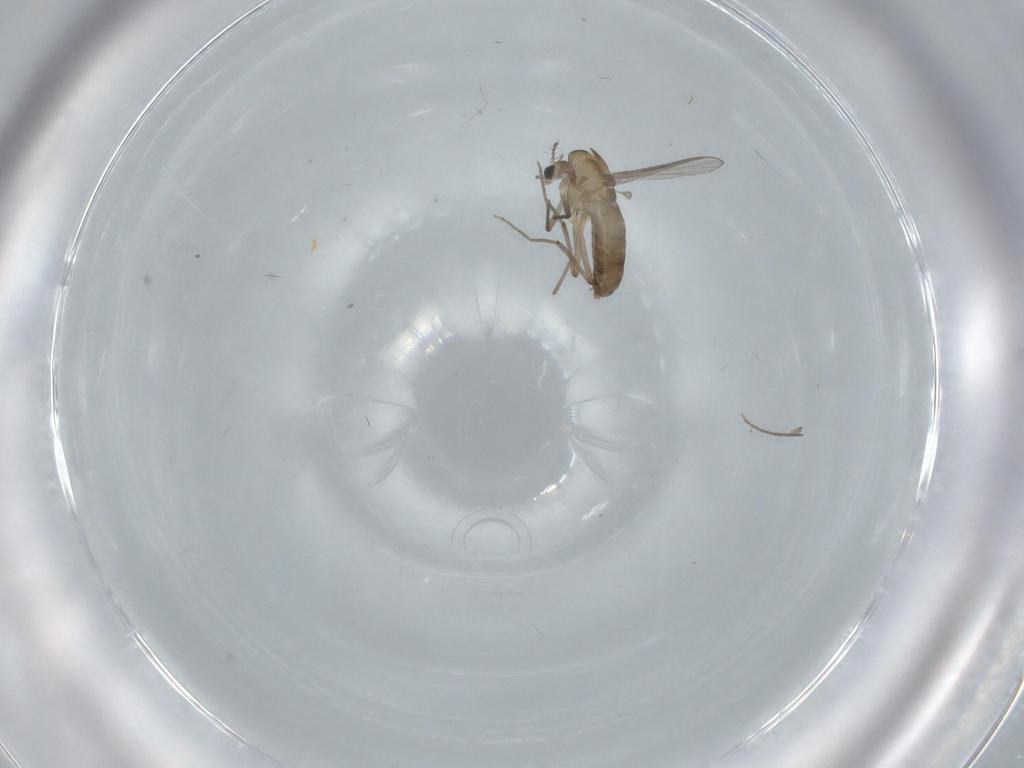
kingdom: Animalia
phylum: Arthropoda
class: Insecta
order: Diptera
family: Chironomidae
